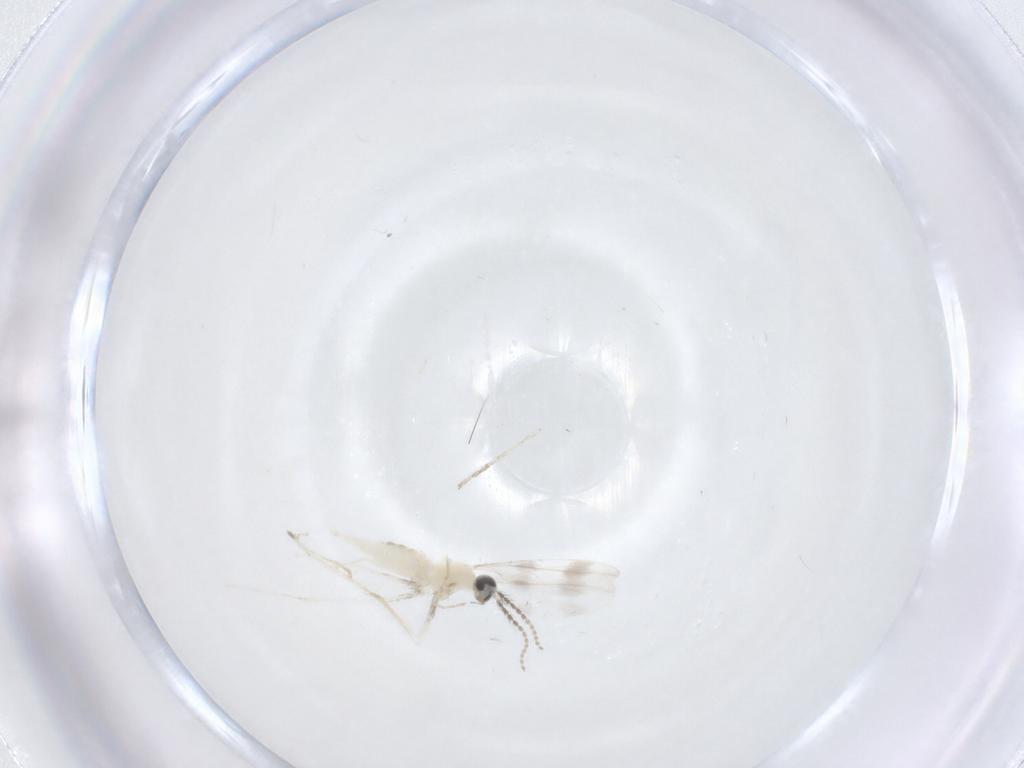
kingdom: Animalia
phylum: Arthropoda
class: Insecta
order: Diptera
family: Cecidomyiidae
